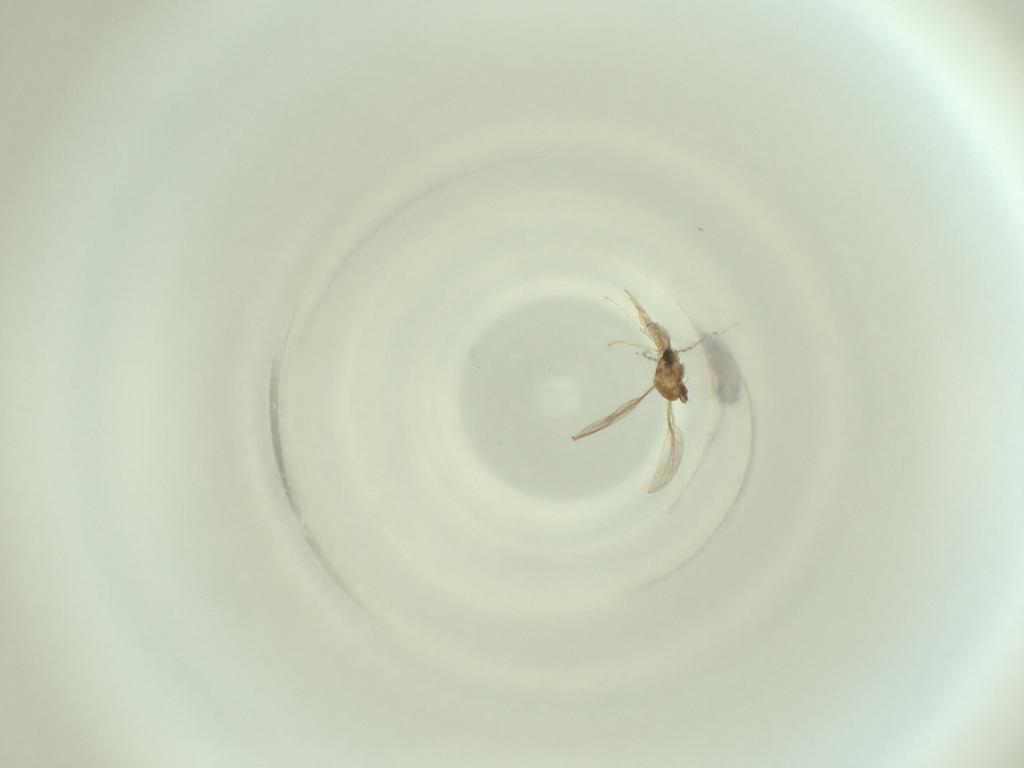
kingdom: Animalia
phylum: Arthropoda
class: Insecta
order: Diptera
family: Cecidomyiidae
